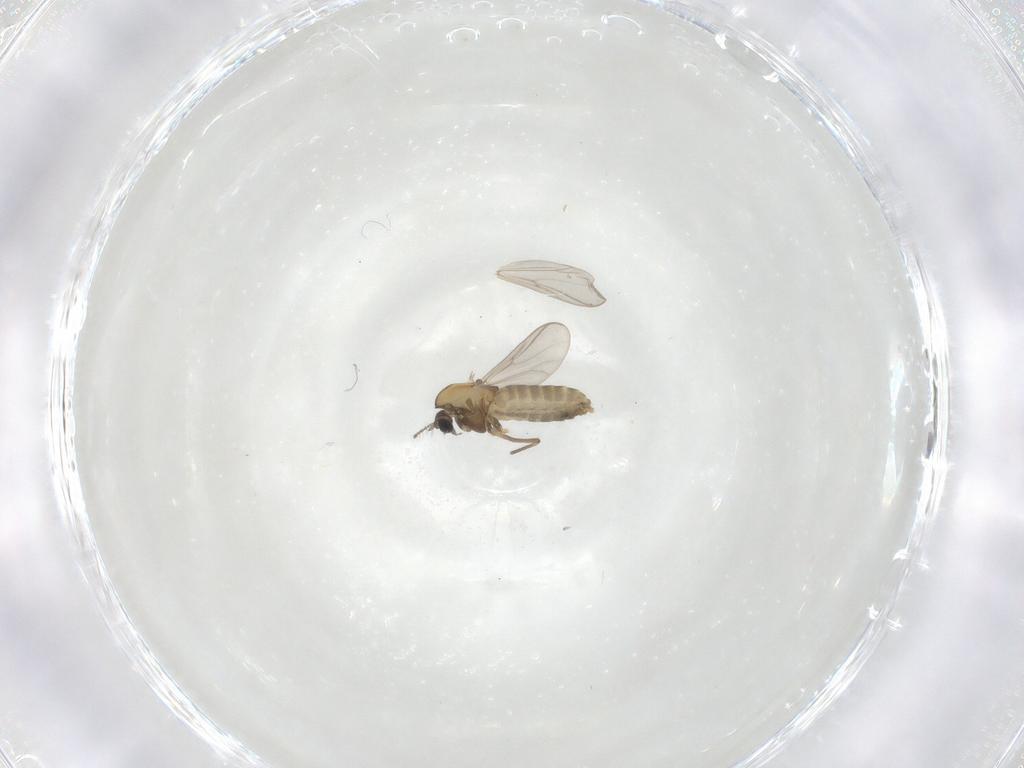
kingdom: Animalia
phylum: Arthropoda
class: Insecta
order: Diptera
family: Chironomidae
